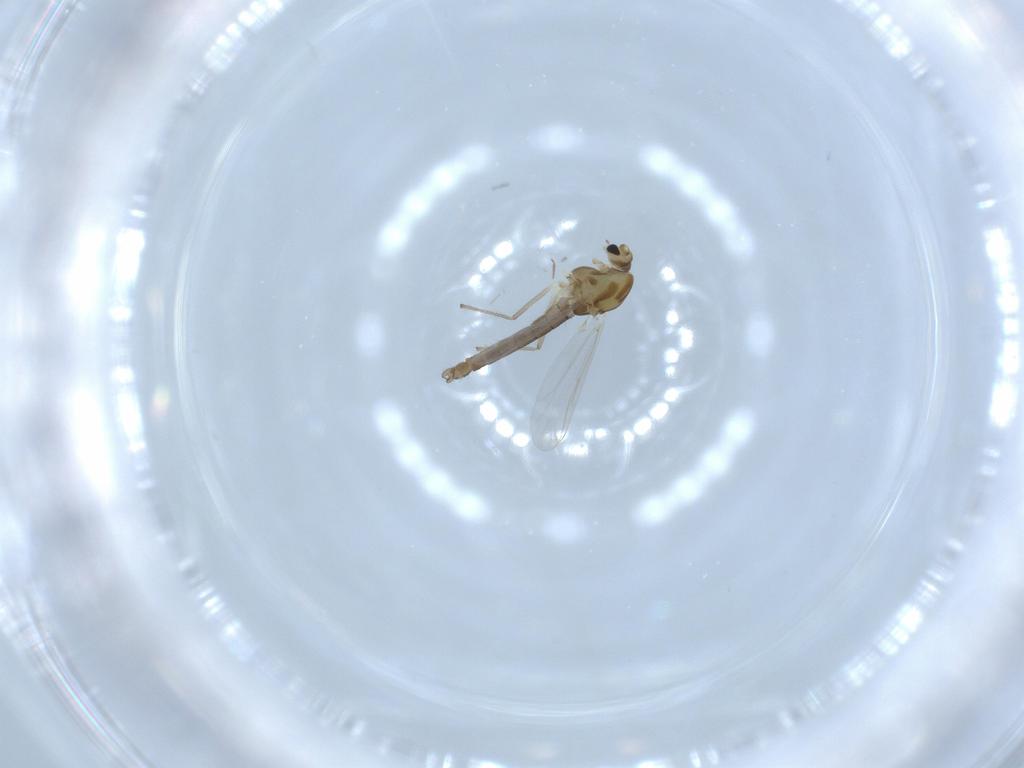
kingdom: Animalia
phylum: Arthropoda
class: Insecta
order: Diptera
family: Chironomidae
